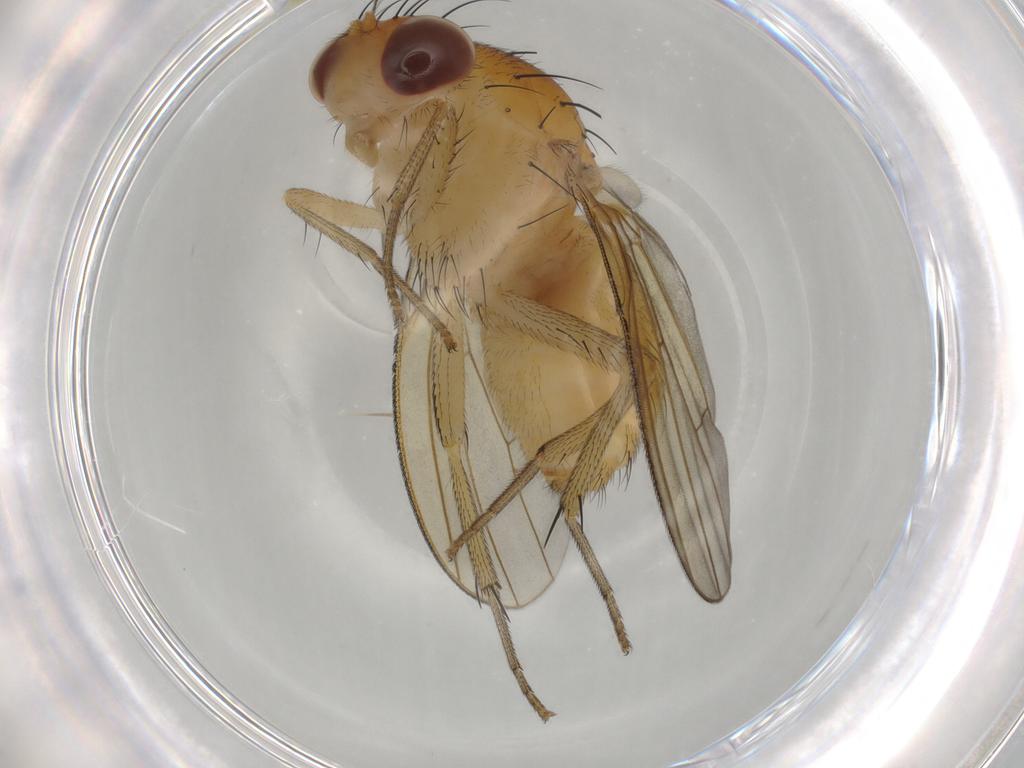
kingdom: Animalia
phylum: Arthropoda
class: Insecta
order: Diptera
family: Cecidomyiidae
